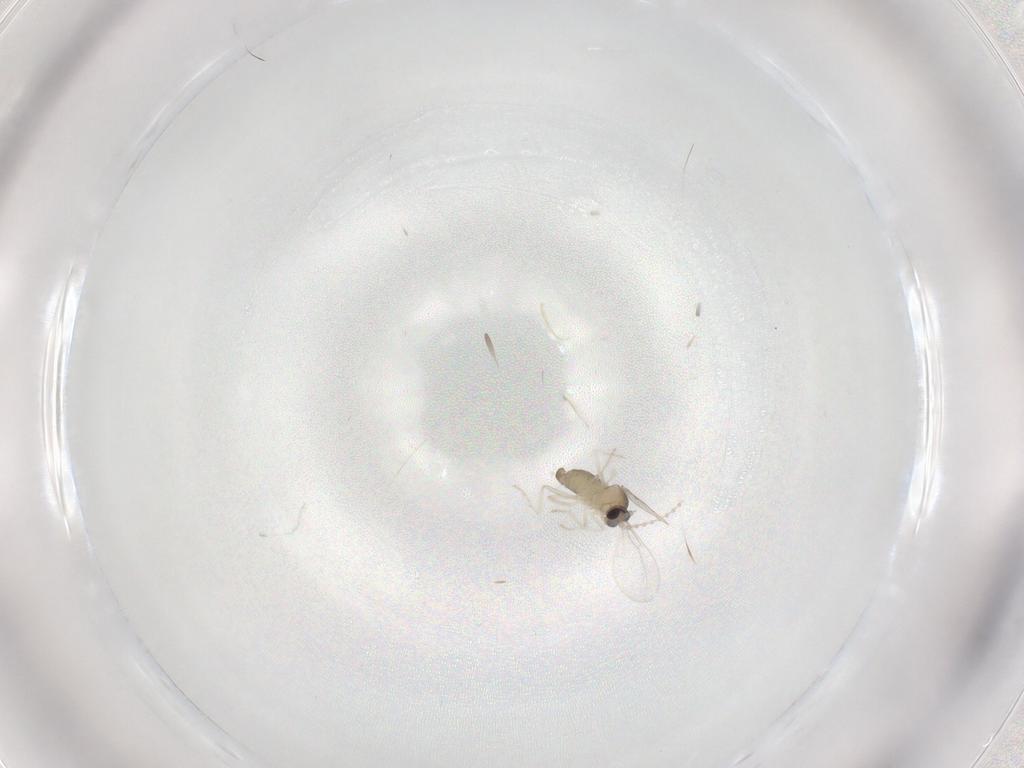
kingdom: Animalia
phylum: Arthropoda
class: Insecta
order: Diptera
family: Cecidomyiidae
